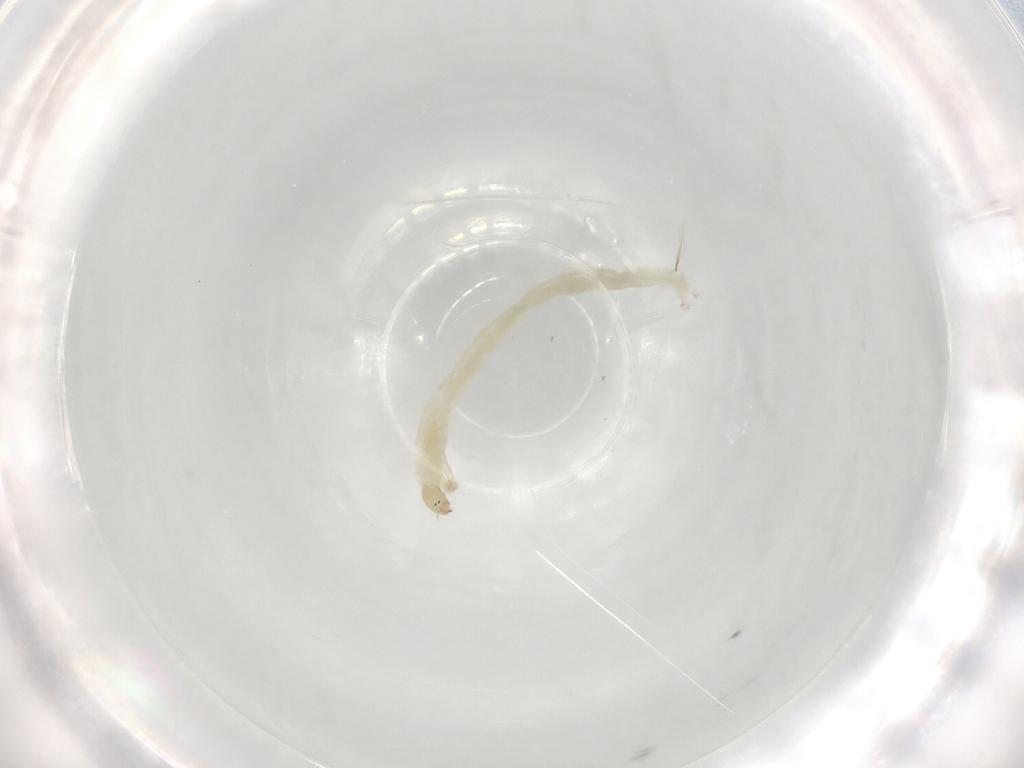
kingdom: Animalia
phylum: Arthropoda
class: Insecta
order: Diptera
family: Chironomidae
